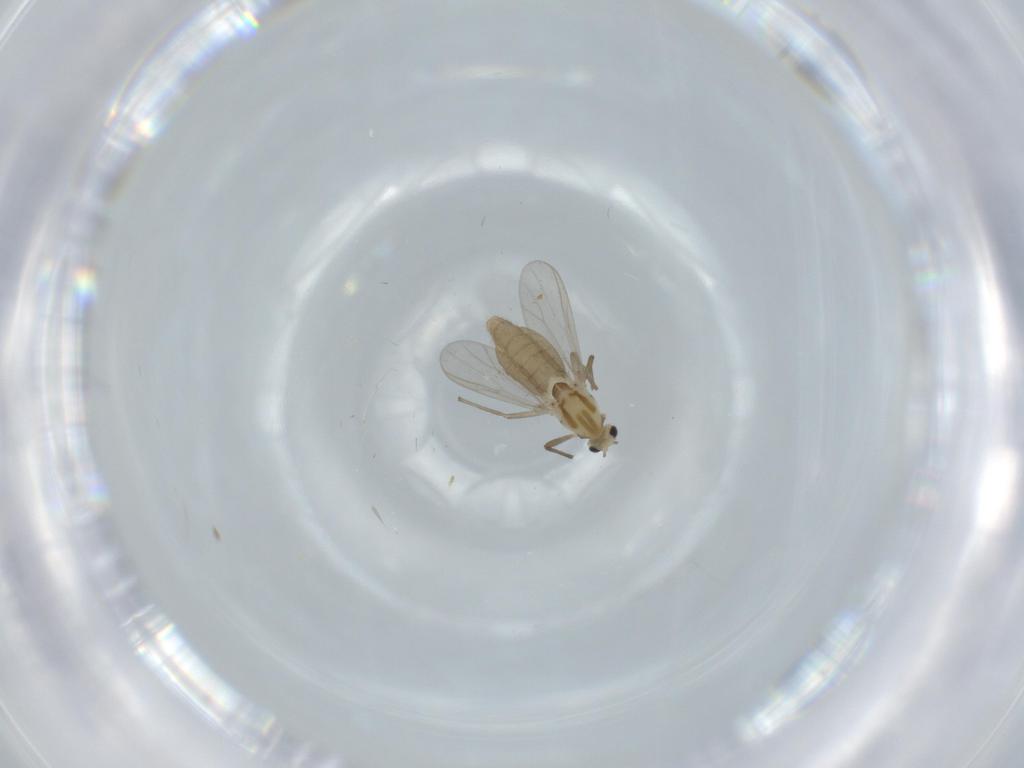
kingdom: Animalia
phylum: Arthropoda
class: Insecta
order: Diptera
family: Chironomidae
